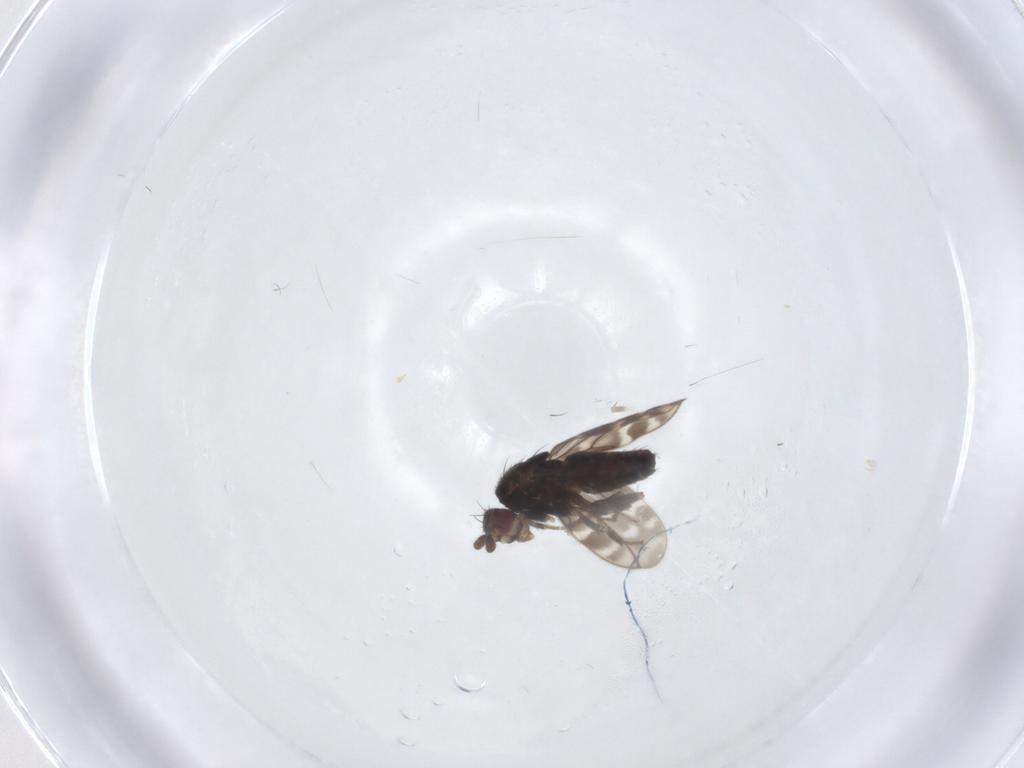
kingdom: Animalia
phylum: Arthropoda
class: Insecta
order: Diptera
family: Sphaeroceridae
